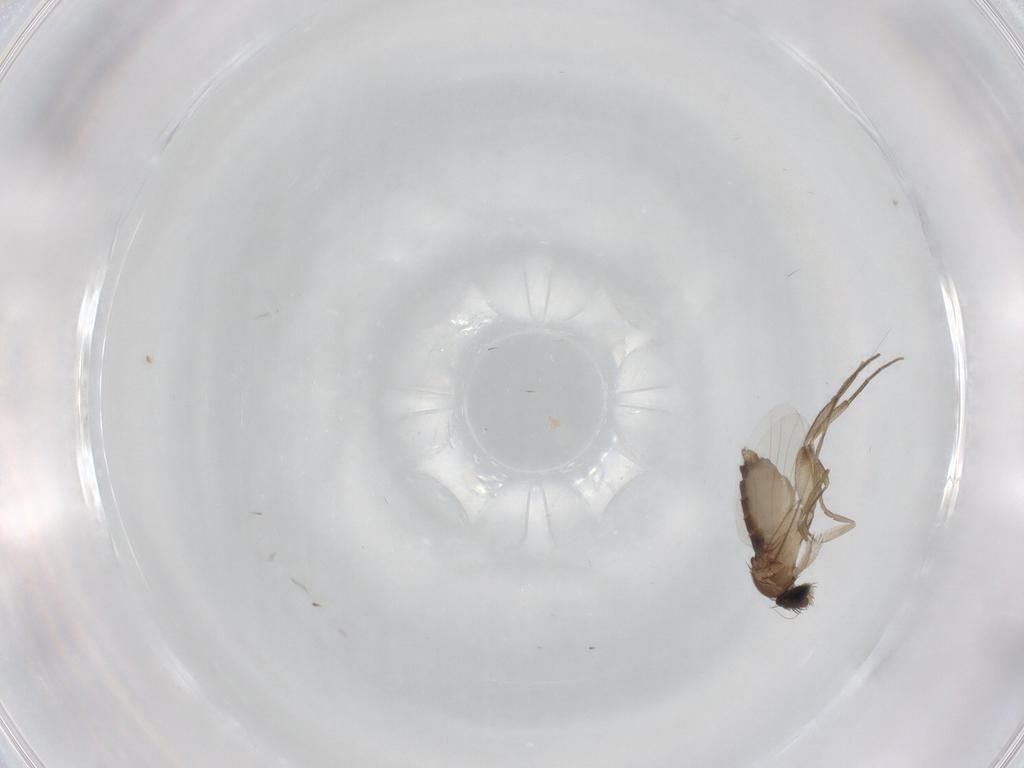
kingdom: Animalia
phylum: Arthropoda
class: Insecta
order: Diptera
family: Phoridae
